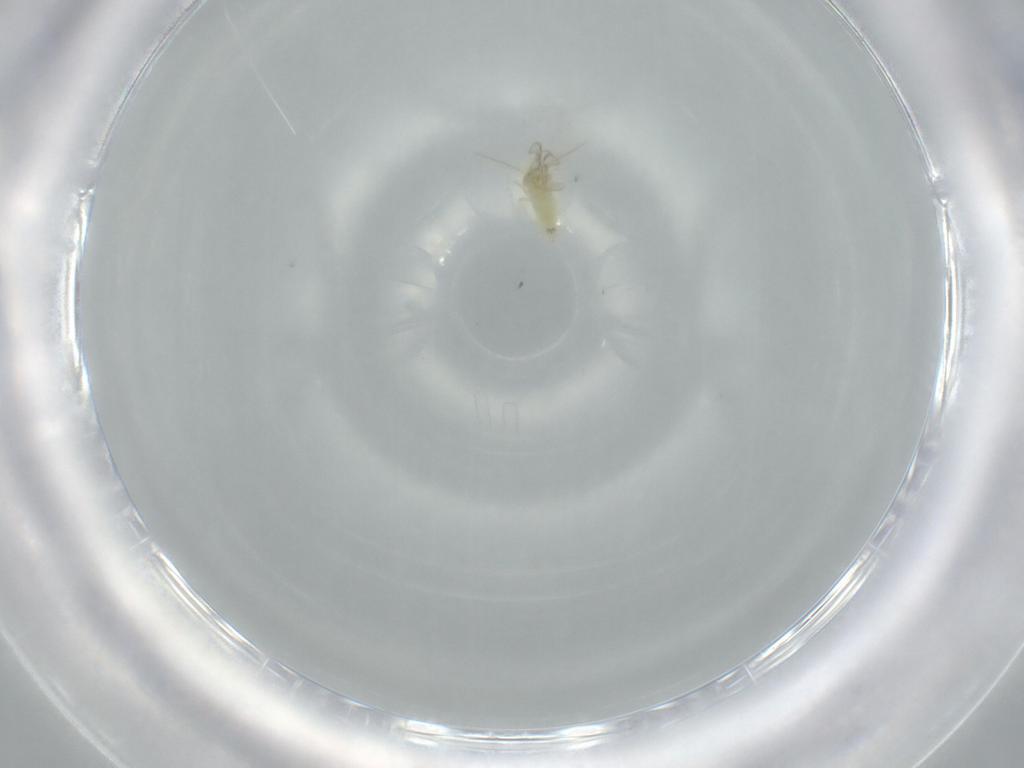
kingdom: Animalia
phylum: Arthropoda
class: Insecta
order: Hemiptera
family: Aleyrodidae
